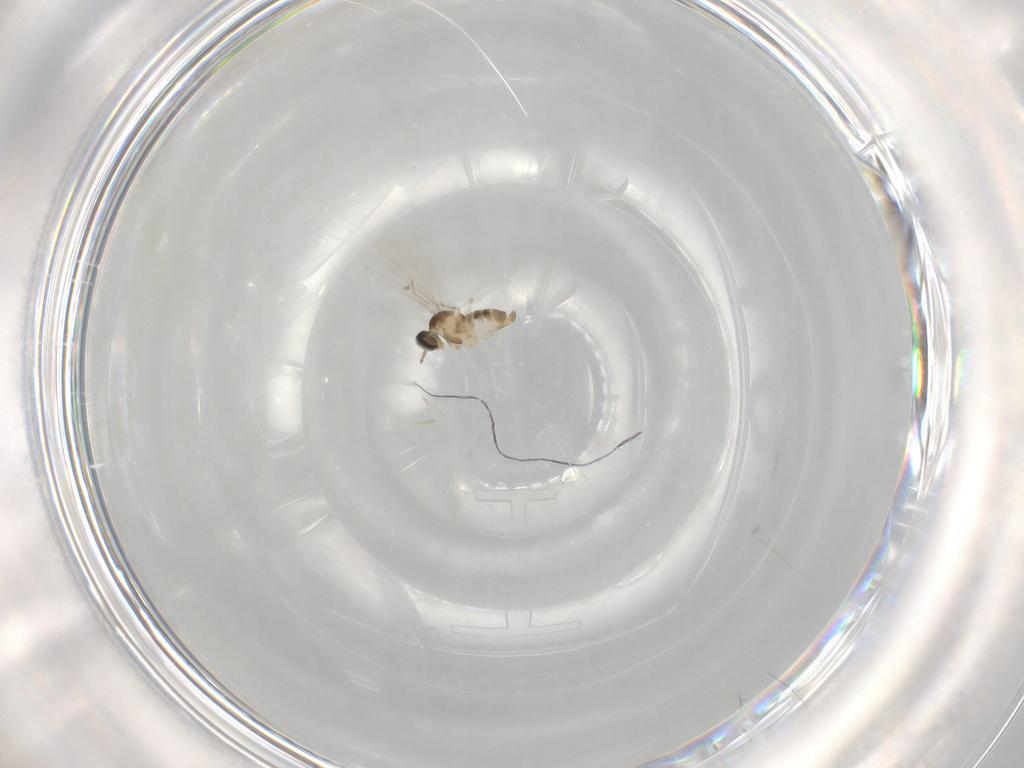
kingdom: Animalia
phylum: Arthropoda
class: Insecta
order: Diptera
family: Cecidomyiidae
